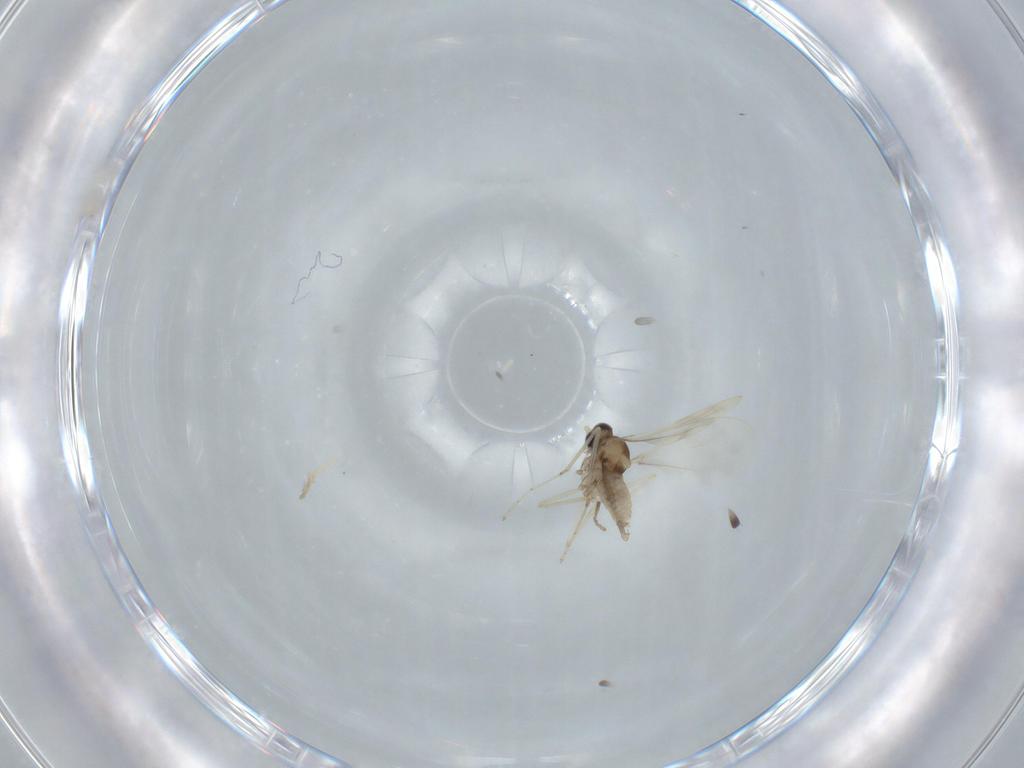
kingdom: Animalia
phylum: Arthropoda
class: Insecta
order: Diptera
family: Cecidomyiidae
